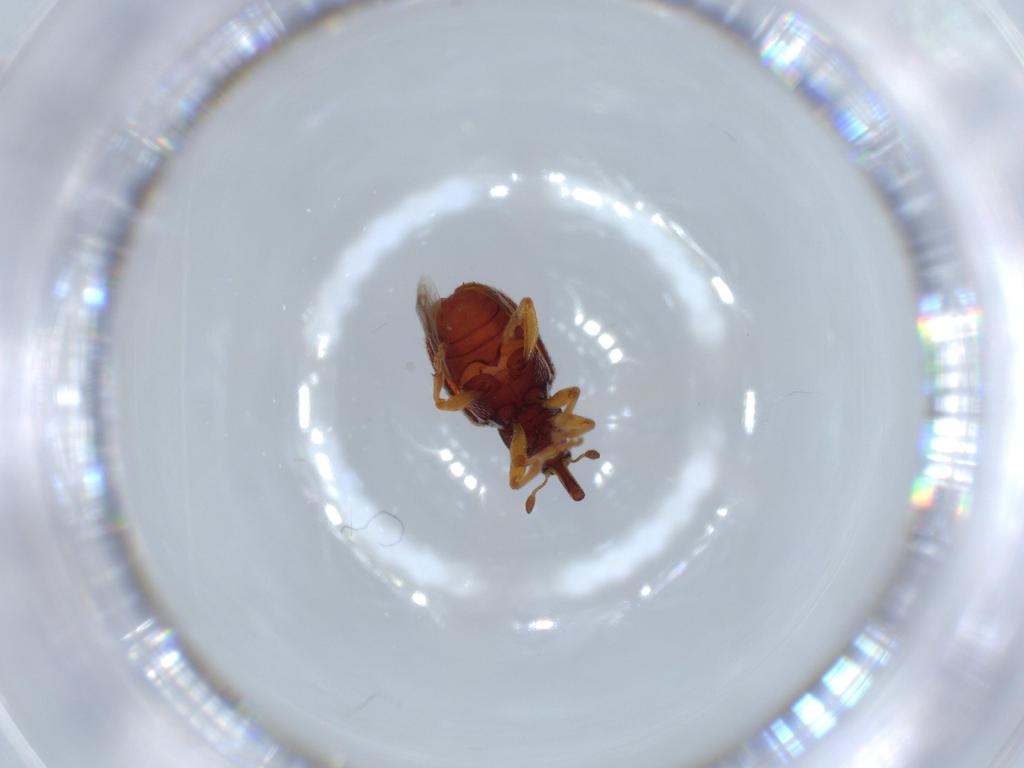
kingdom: Animalia
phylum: Arthropoda
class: Insecta
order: Coleoptera
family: Curculionidae
